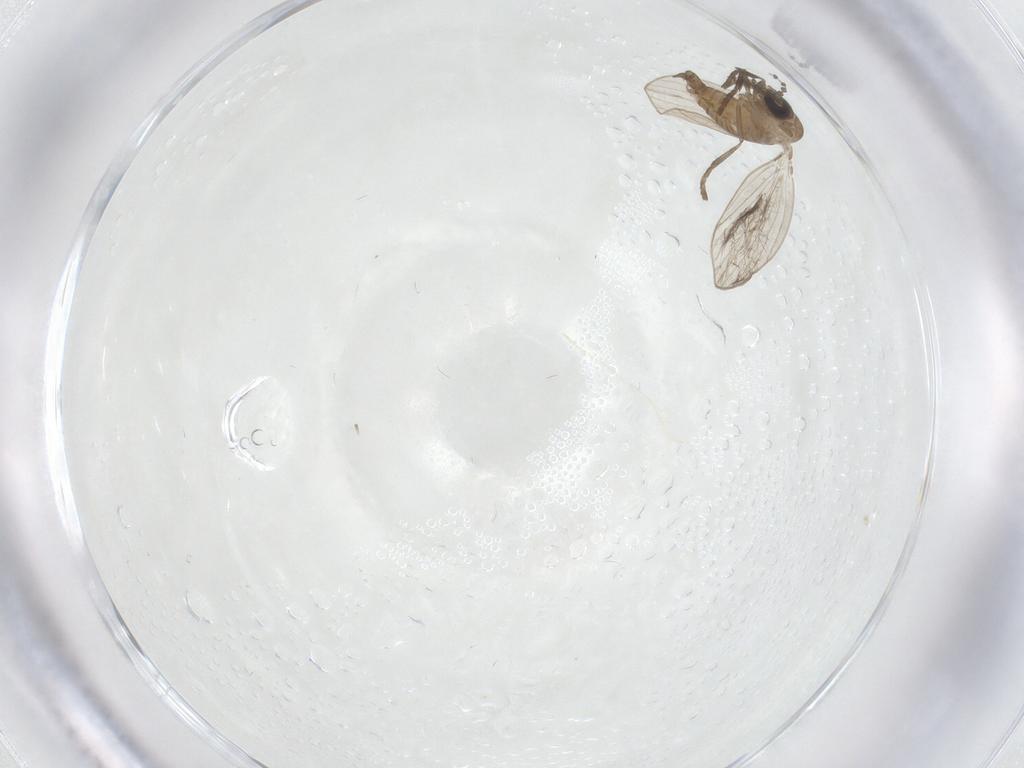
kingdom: Animalia
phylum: Arthropoda
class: Insecta
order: Diptera
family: Psychodidae
